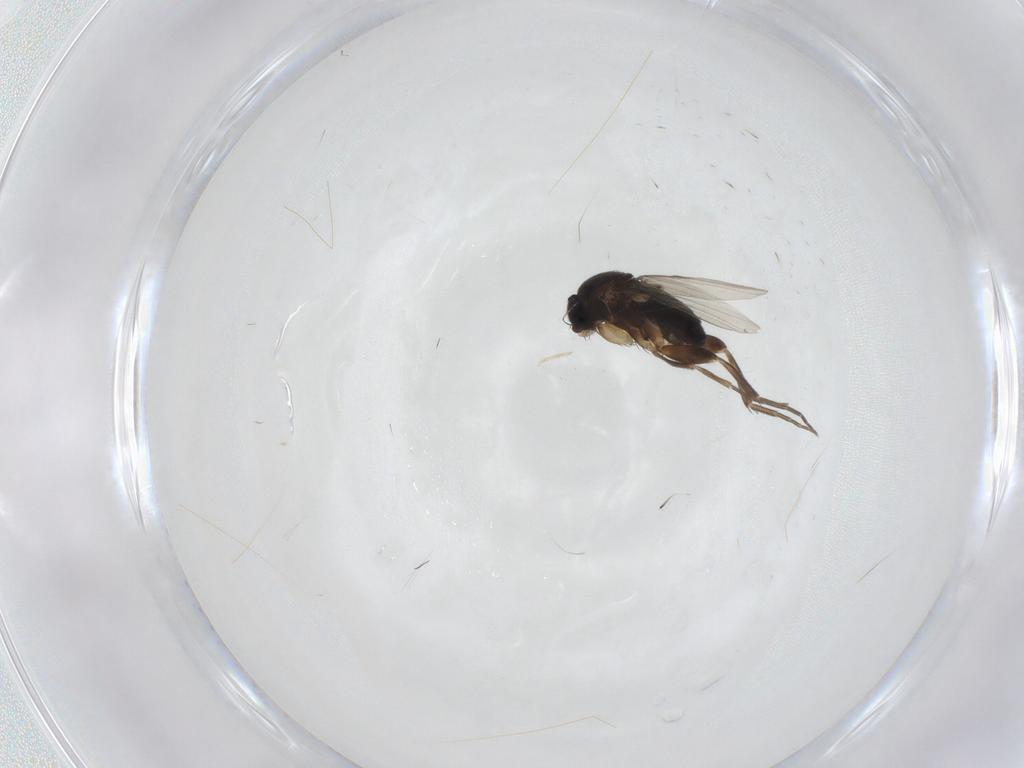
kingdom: Animalia
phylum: Arthropoda
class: Insecta
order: Diptera
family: Phoridae
